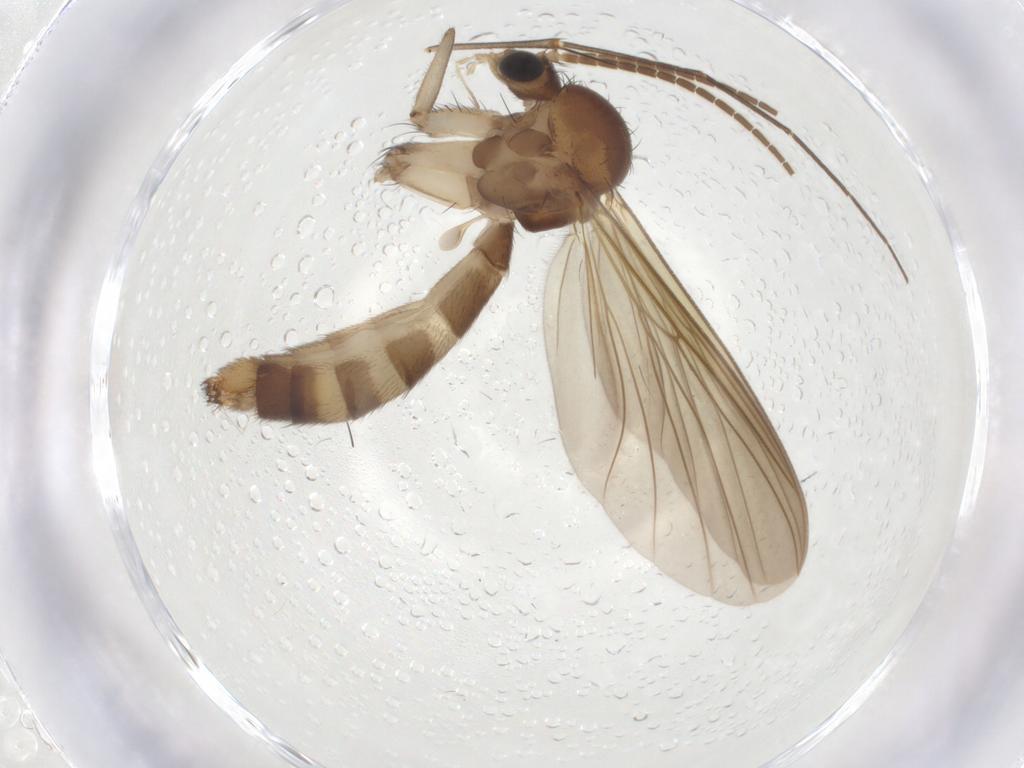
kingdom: Animalia
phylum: Arthropoda
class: Insecta
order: Diptera
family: Mycetophilidae
